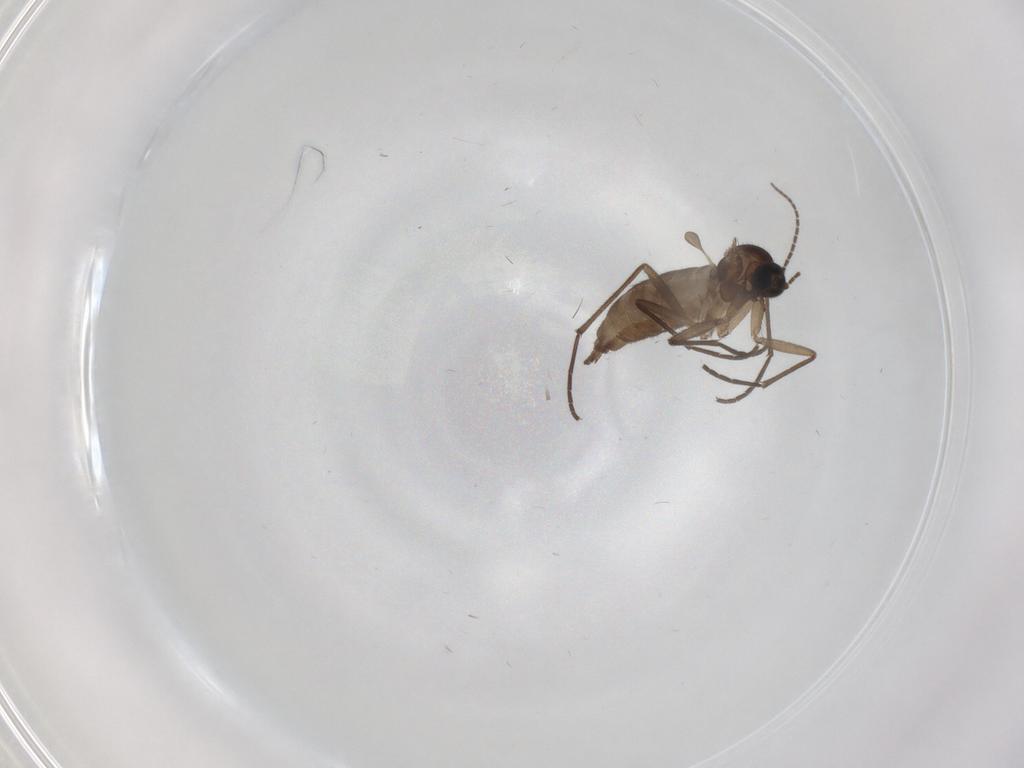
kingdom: Animalia
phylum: Arthropoda
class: Insecta
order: Diptera
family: Sciaridae
